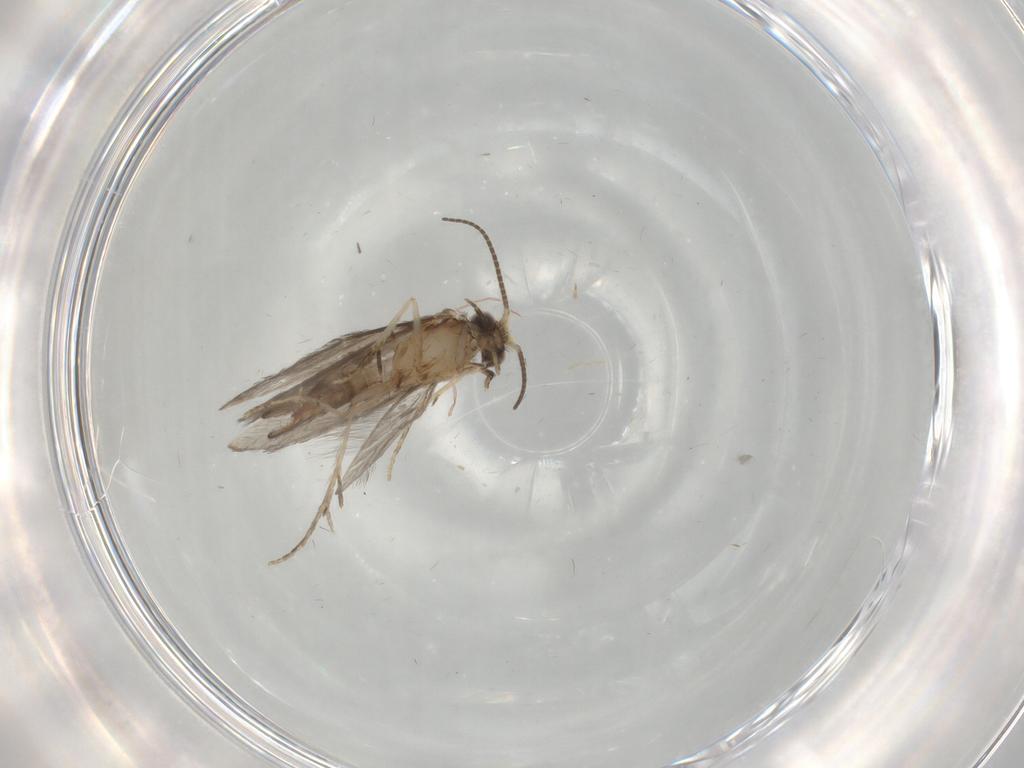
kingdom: Animalia
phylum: Arthropoda
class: Insecta
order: Trichoptera
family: Hydroptilidae
